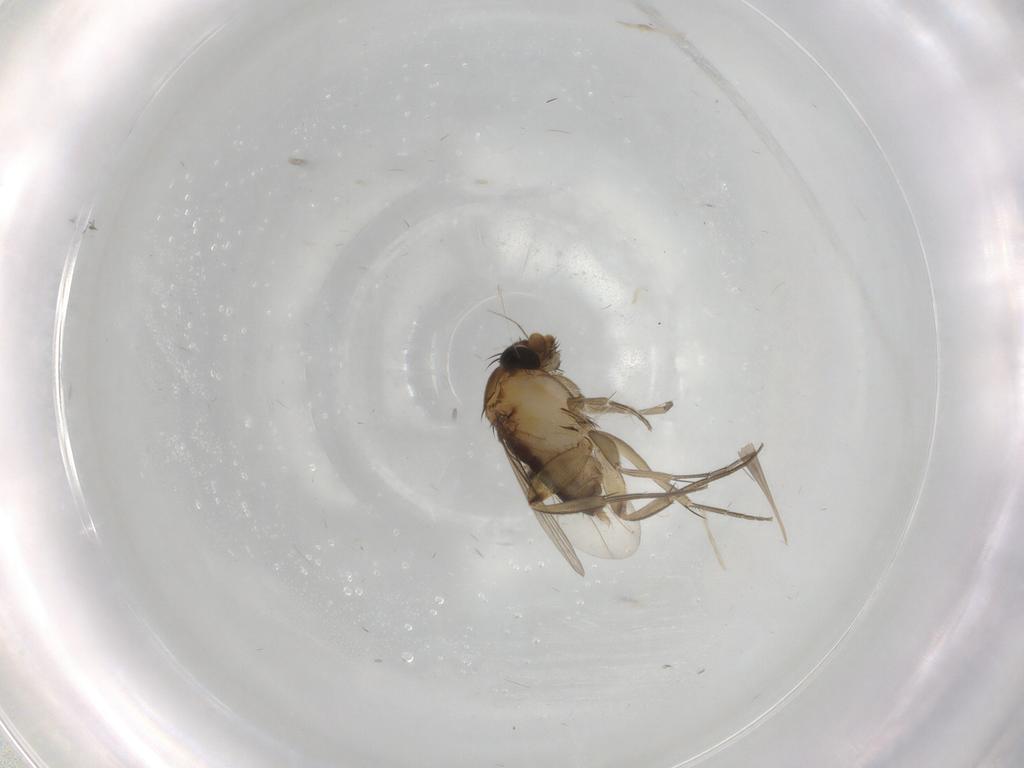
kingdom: Animalia
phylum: Arthropoda
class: Insecta
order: Diptera
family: Phoridae
